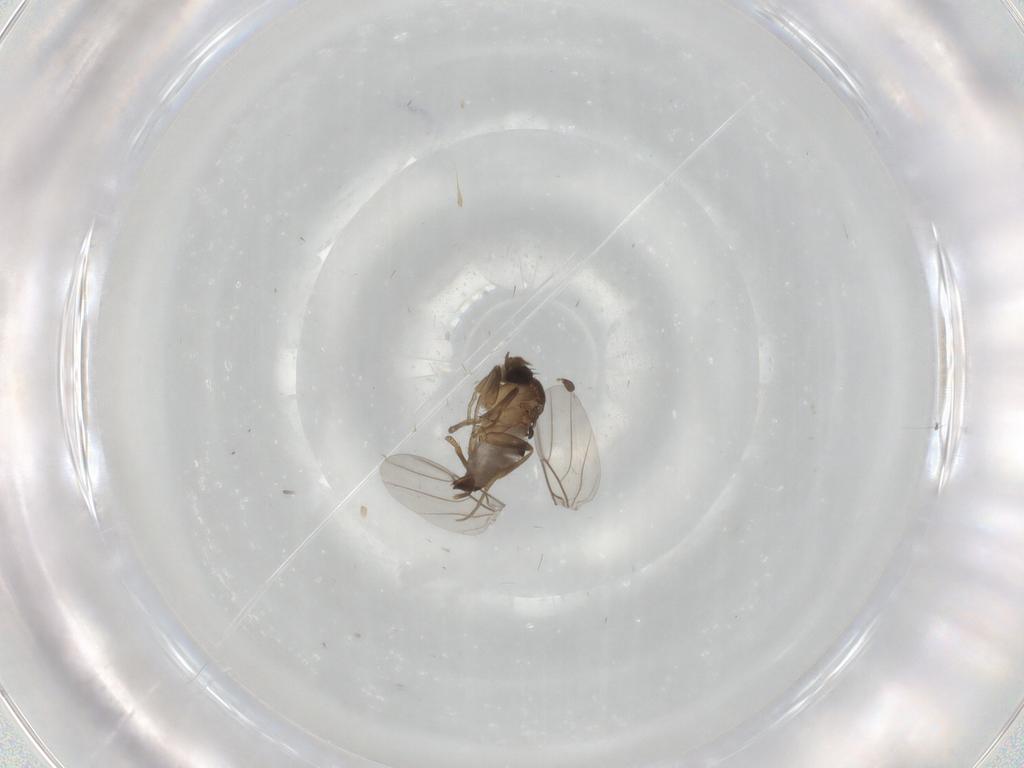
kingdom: Animalia
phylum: Arthropoda
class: Insecta
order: Diptera
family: Phoridae
